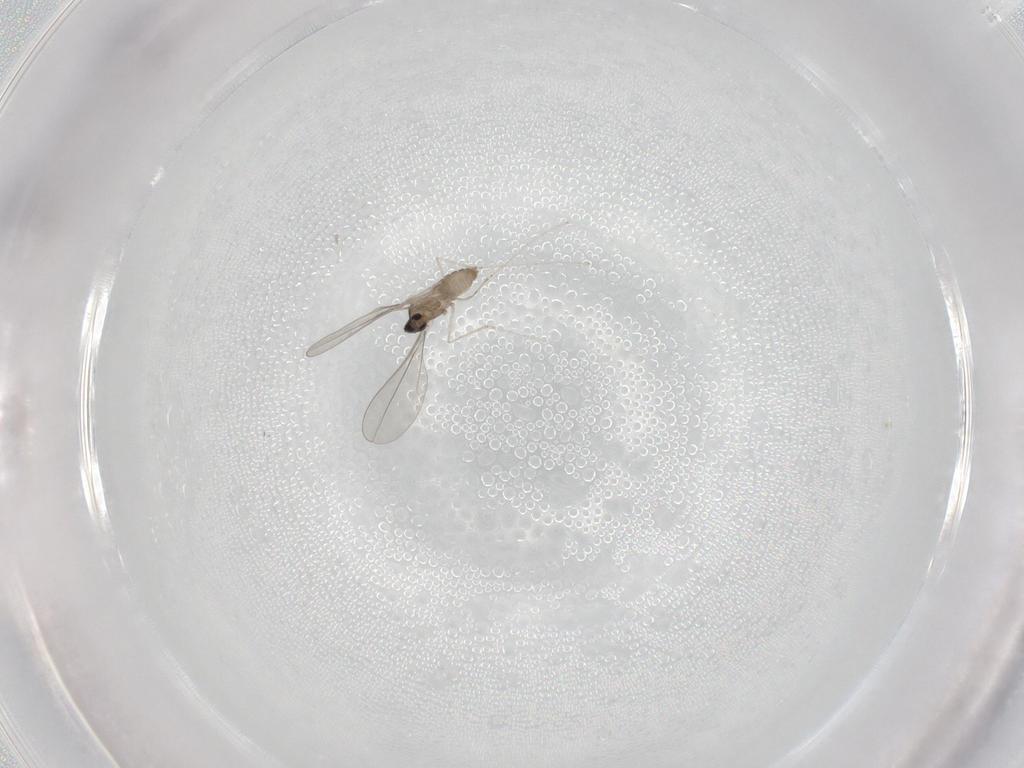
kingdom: Animalia
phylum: Arthropoda
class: Insecta
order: Diptera
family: Cecidomyiidae
